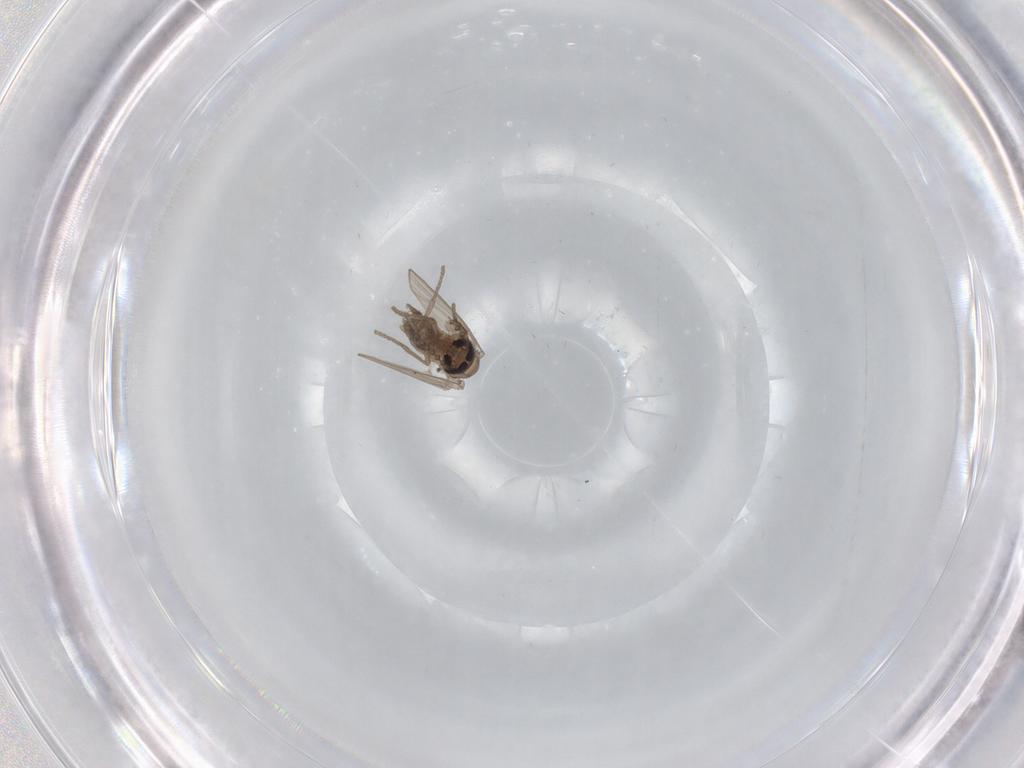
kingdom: Animalia
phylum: Arthropoda
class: Insecta
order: Diptera
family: Psychodidae
